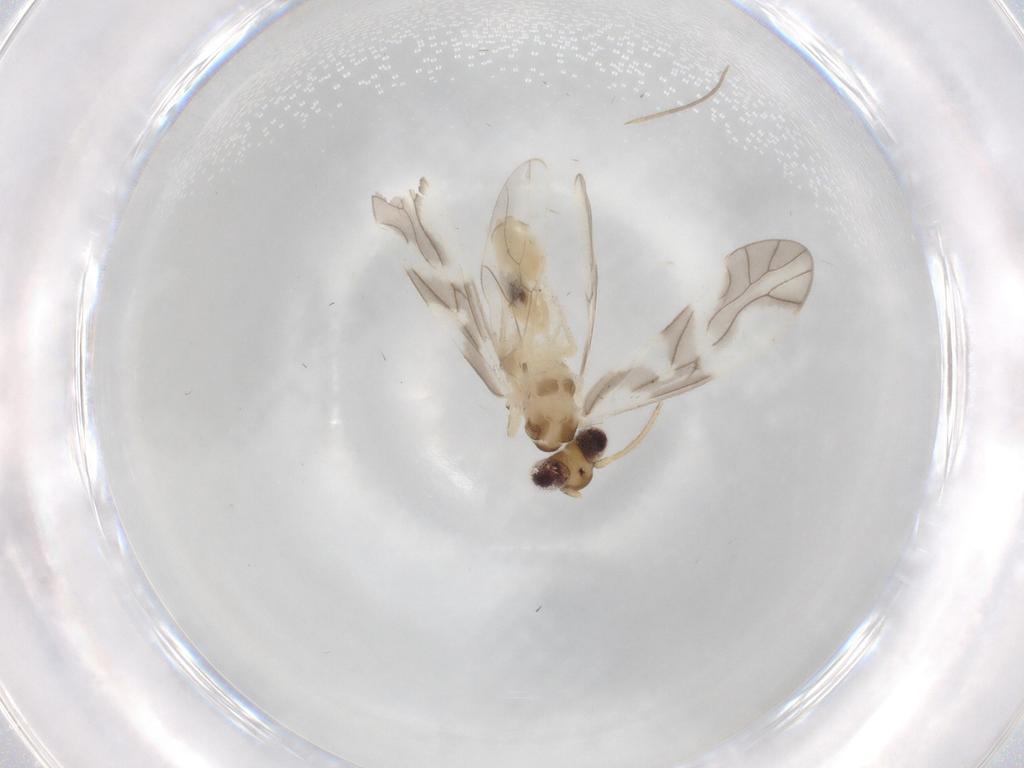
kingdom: Animalia
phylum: Arthropoda
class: Insecta
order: Psocodea
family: Caeciliusidae
